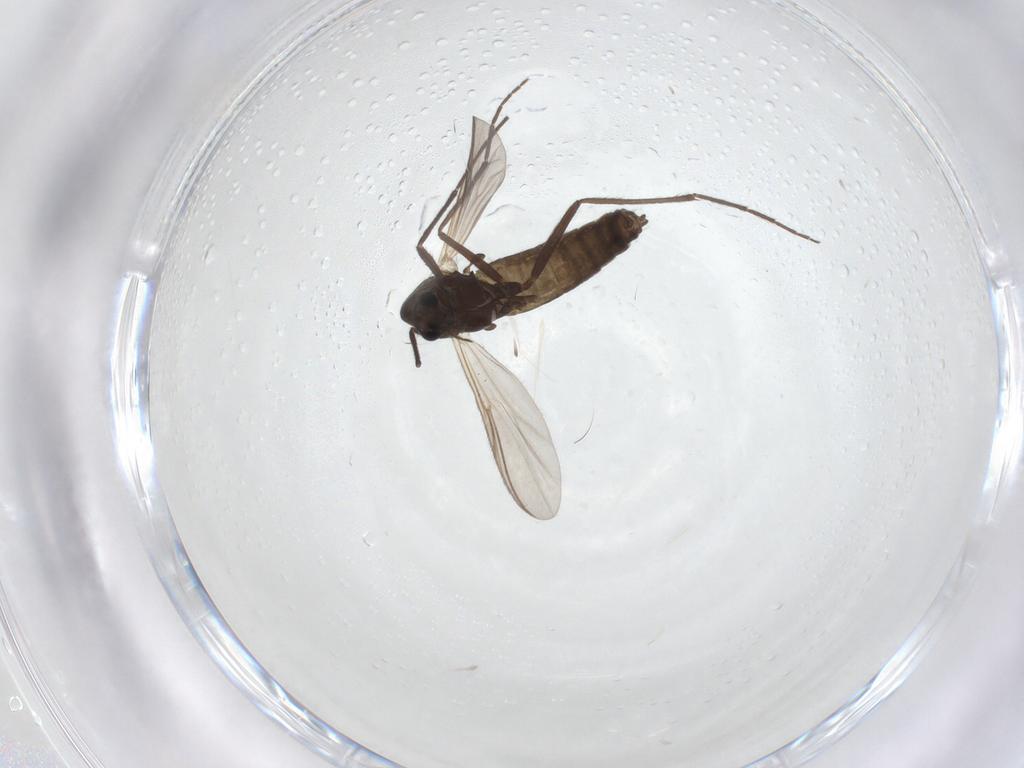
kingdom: Animalia
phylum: Arthropoda
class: Insecta
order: Diptera
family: Chironomidae
